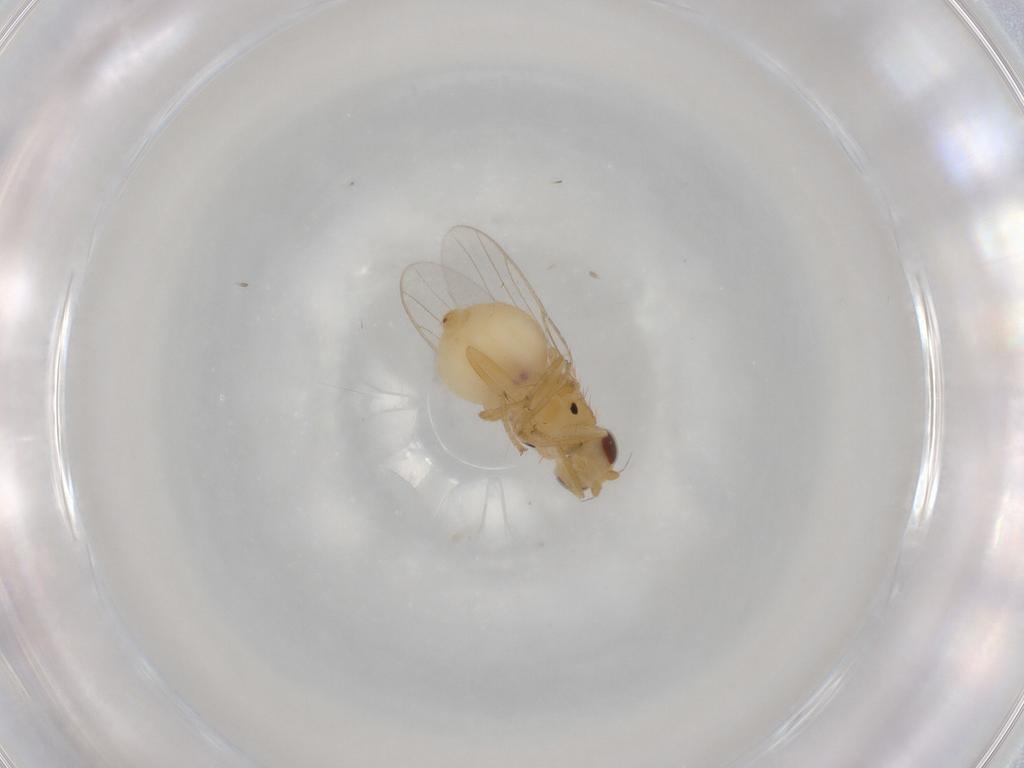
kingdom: Animalia
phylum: Arthropoda
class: Insecta
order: Diptera
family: Chloropidae
